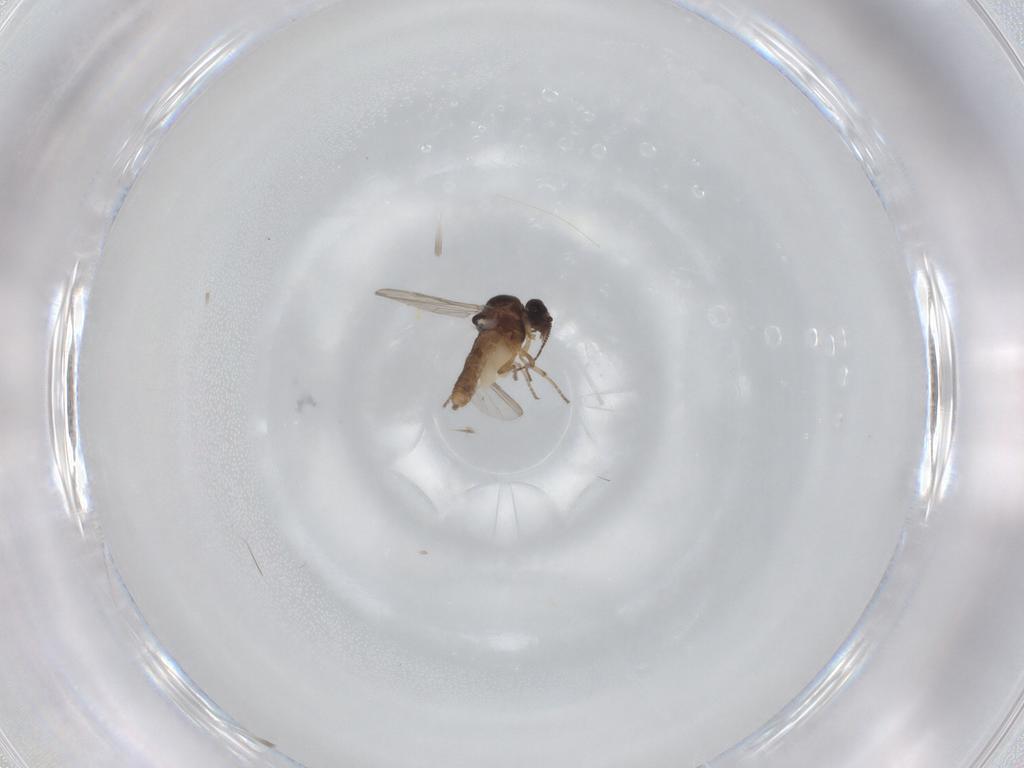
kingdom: Animalia
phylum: Arthropoda
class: Insecta
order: Diptera
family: Ceratopogonidae
